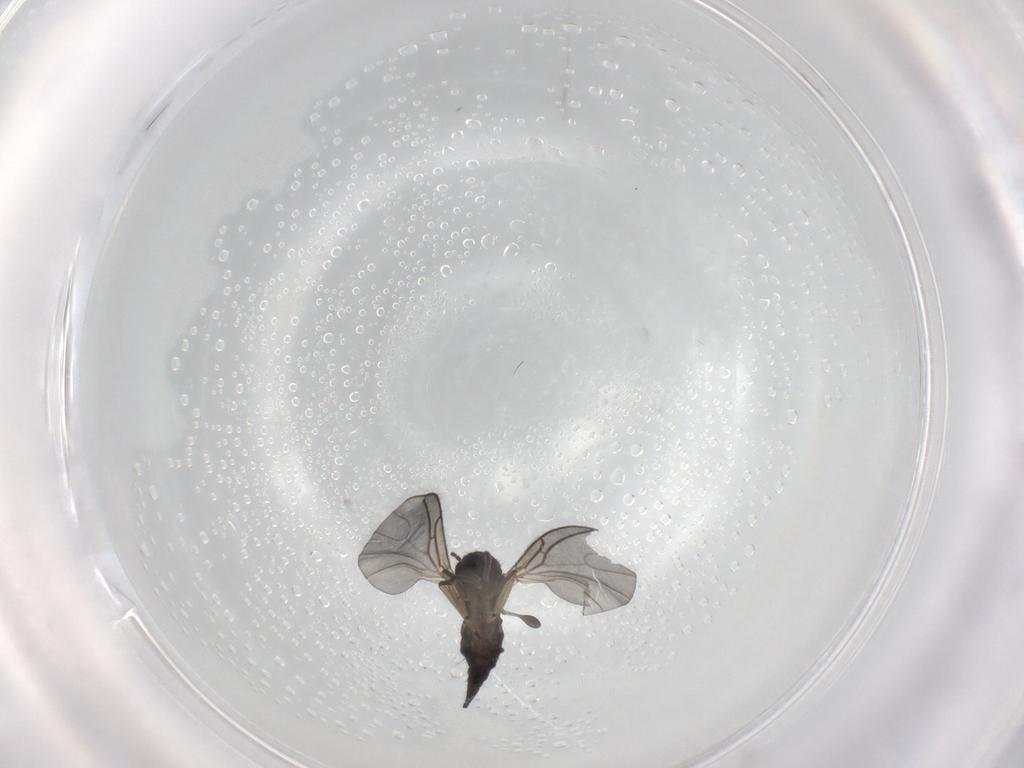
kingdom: Animalia
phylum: Arthropoda
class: Insecta
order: Diptera
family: Sciaridae
